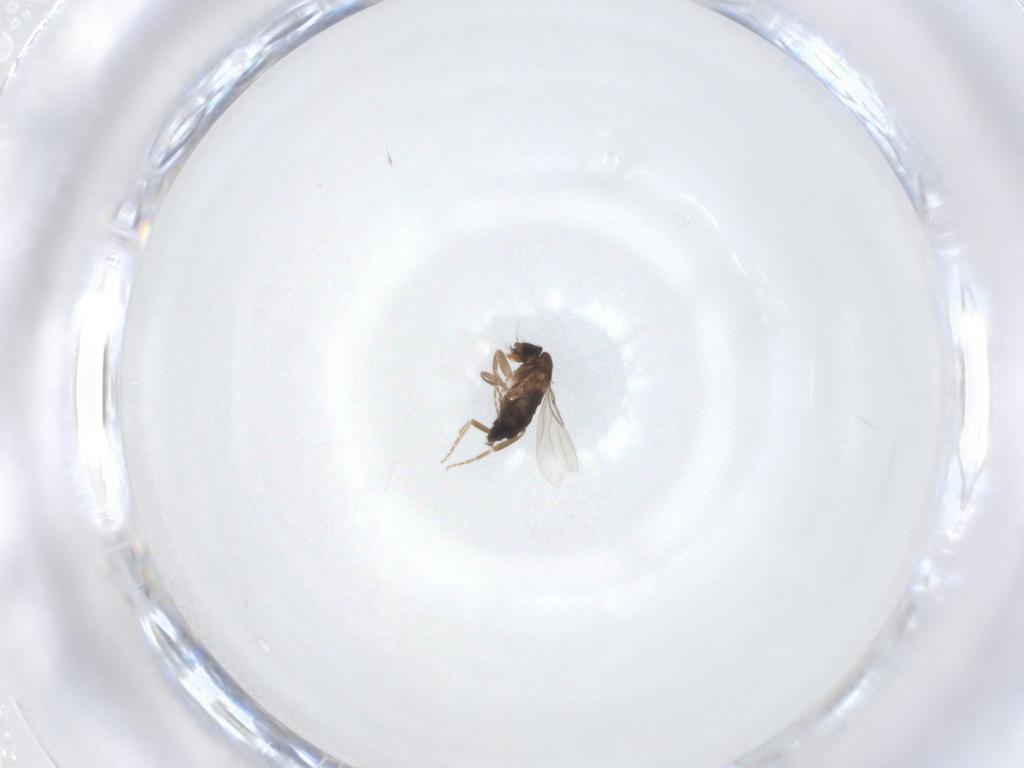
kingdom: Animalia
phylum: Arthropoda
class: Insecta
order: Diptera
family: Phoridae
